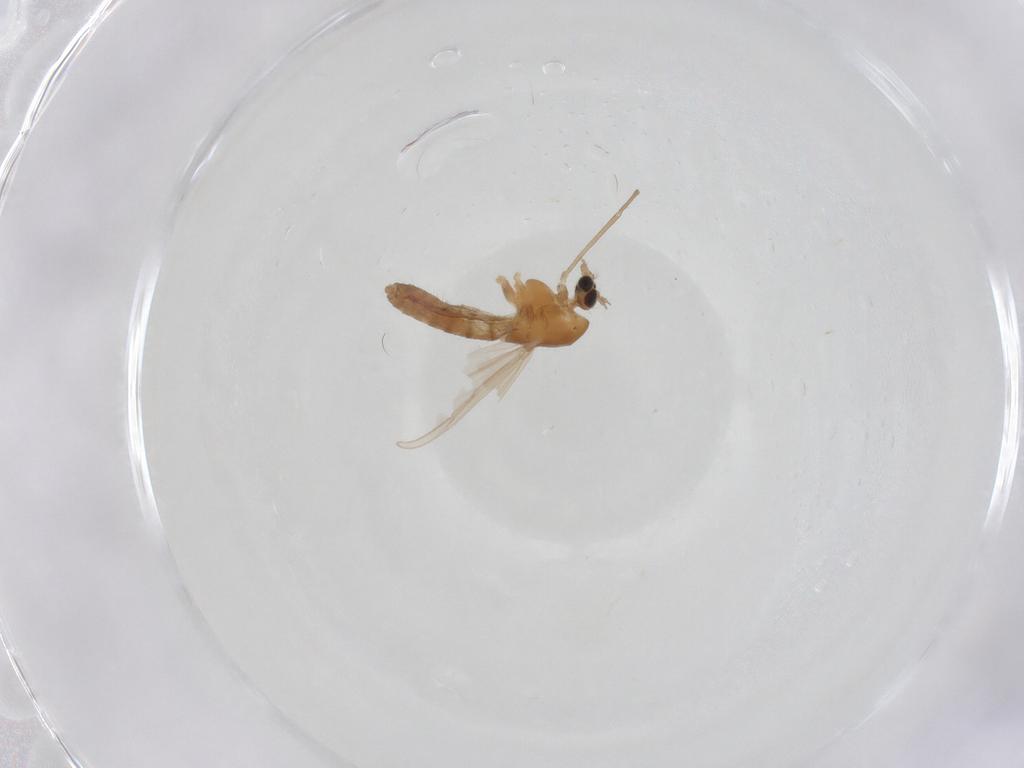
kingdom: Animalia
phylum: Arthropoda
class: Insecta
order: Diptera
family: Chironomidae
